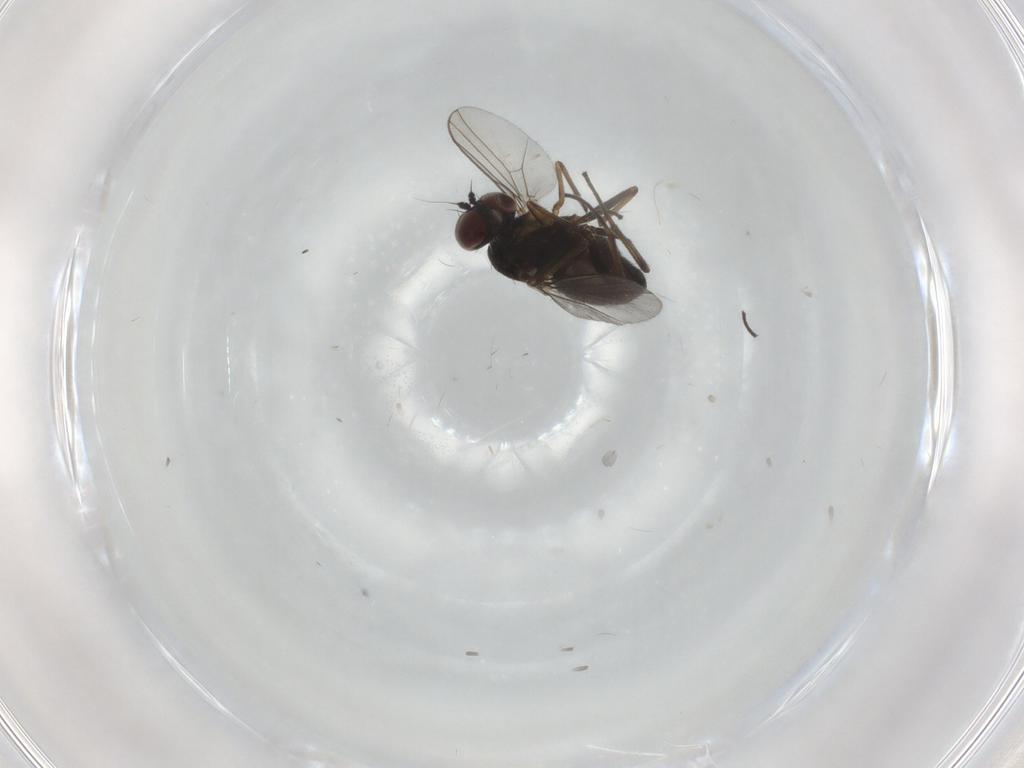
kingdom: Animalia
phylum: Arthropoda
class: Insecta
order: Diptera
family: Dolichopodidae
